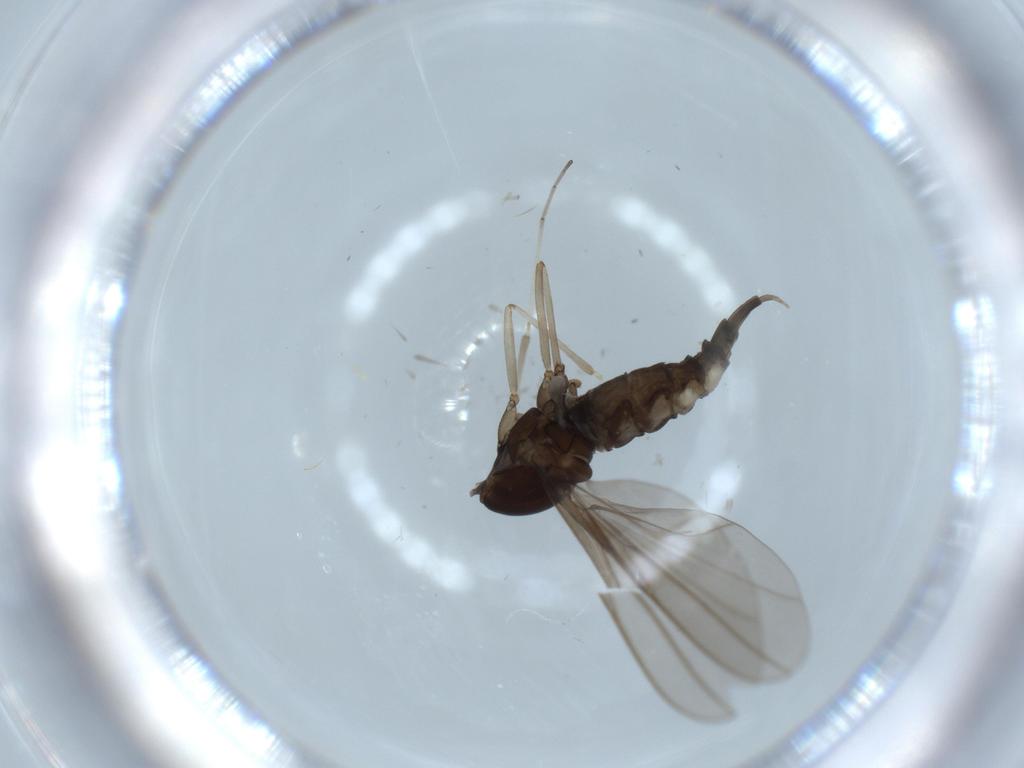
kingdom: Animalia
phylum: Arthropoda
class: Insecta
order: Diptera
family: Cecidomyiidae
